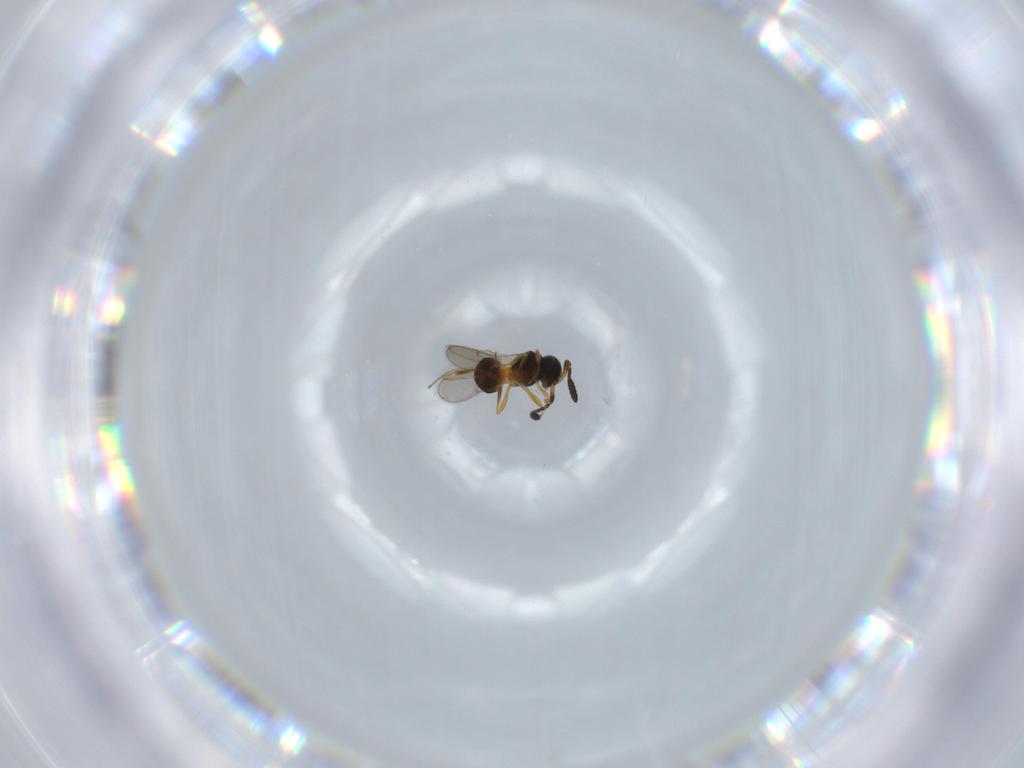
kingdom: Animalia
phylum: Arthropoda
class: Insecta
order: Hymenoptera
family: Mymaridae
